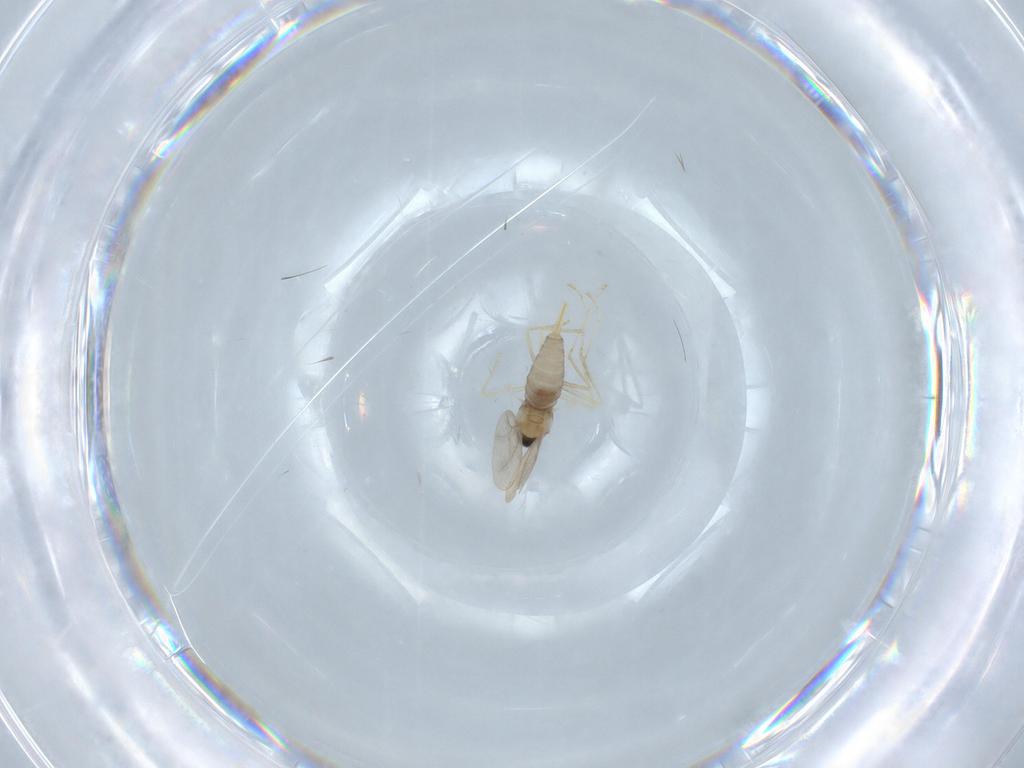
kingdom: Animalia
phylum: Arthropoda
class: Insecta
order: Diptera
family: Cecidomyiidae
